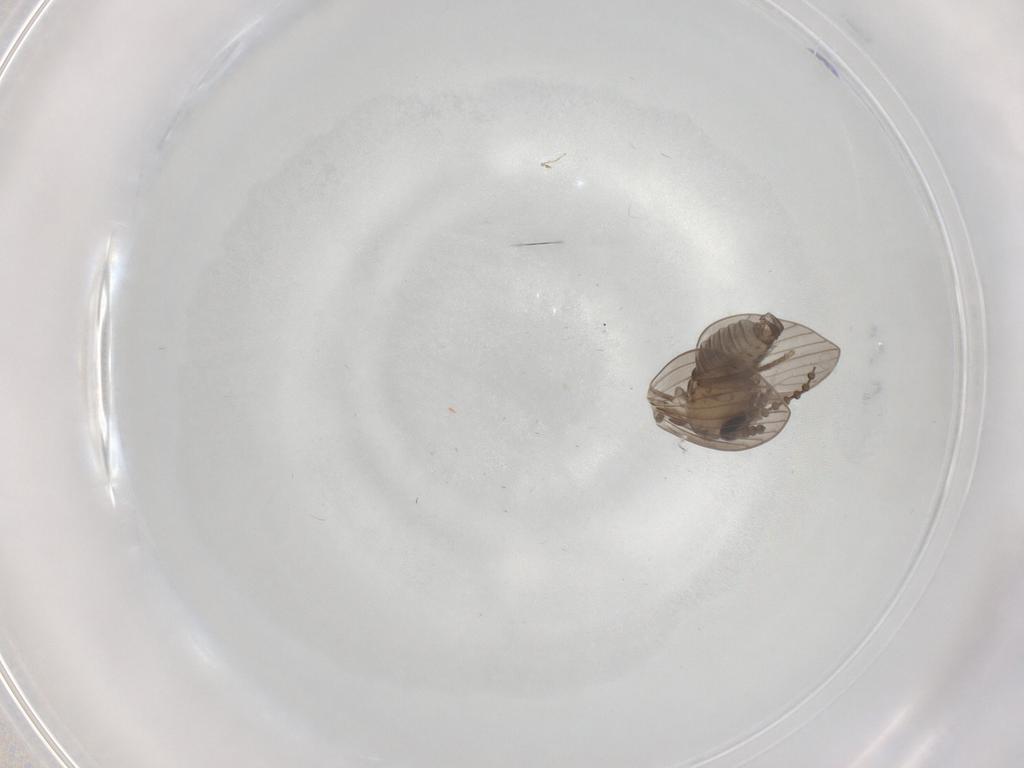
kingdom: Animalia
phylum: Arthropoda
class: Insecta
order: Diptera
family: Psychodidae
